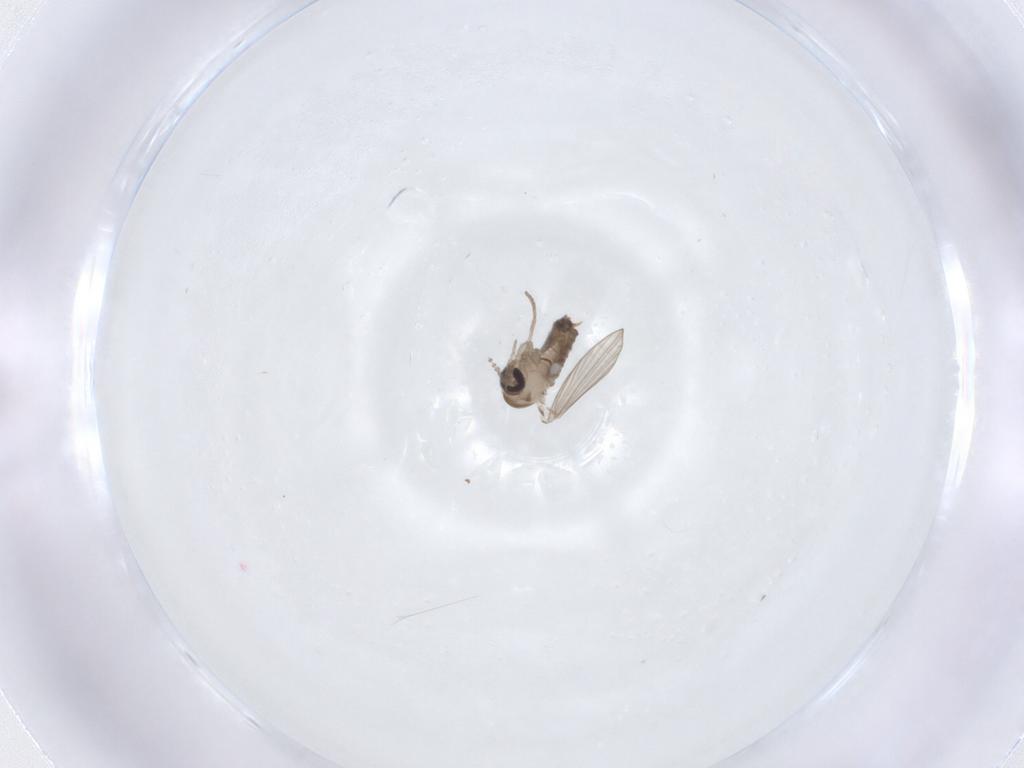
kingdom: Animalia
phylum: Arthropoda
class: Insecta
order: Diptera
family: Psychodidae
